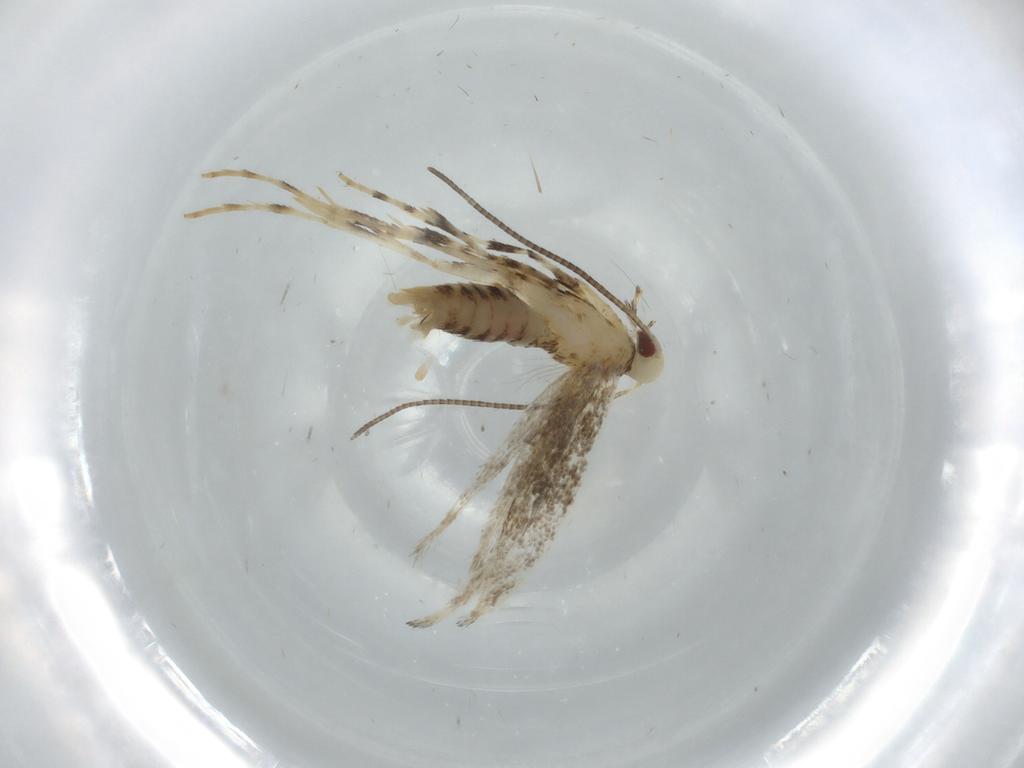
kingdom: Animalia
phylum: Arthropoda
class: Insecta
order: Lepidoptera
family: Gracillariidae
